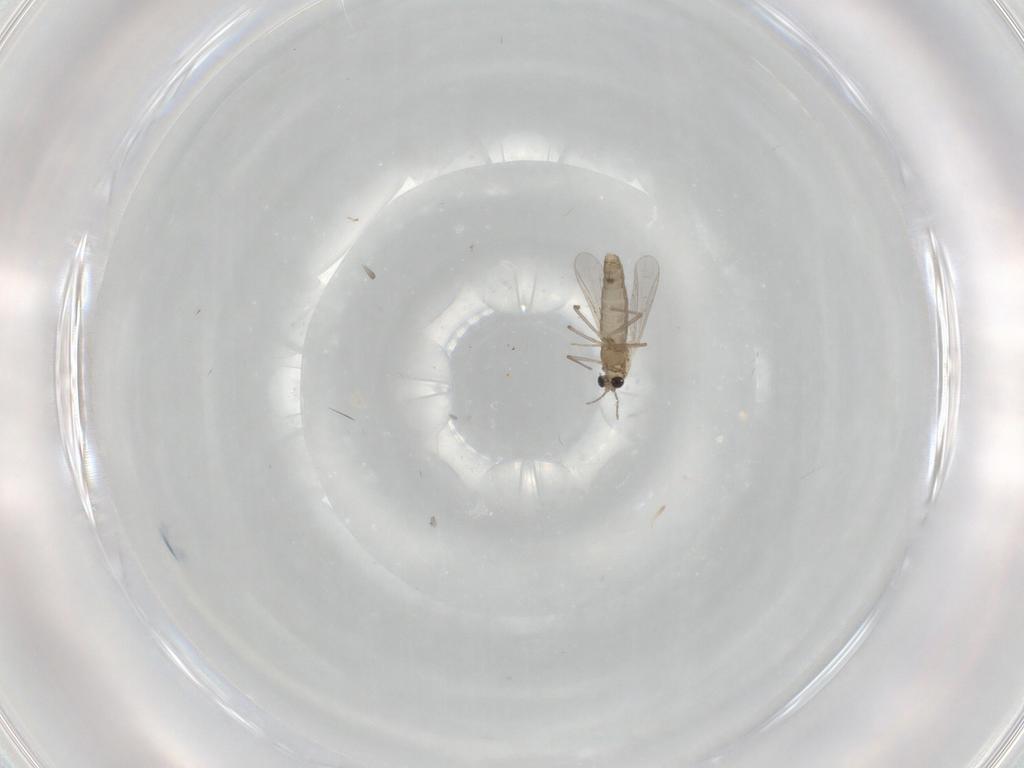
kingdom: Animalia
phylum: Arthropoda
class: Insecta
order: Diptera
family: Chironomidae
